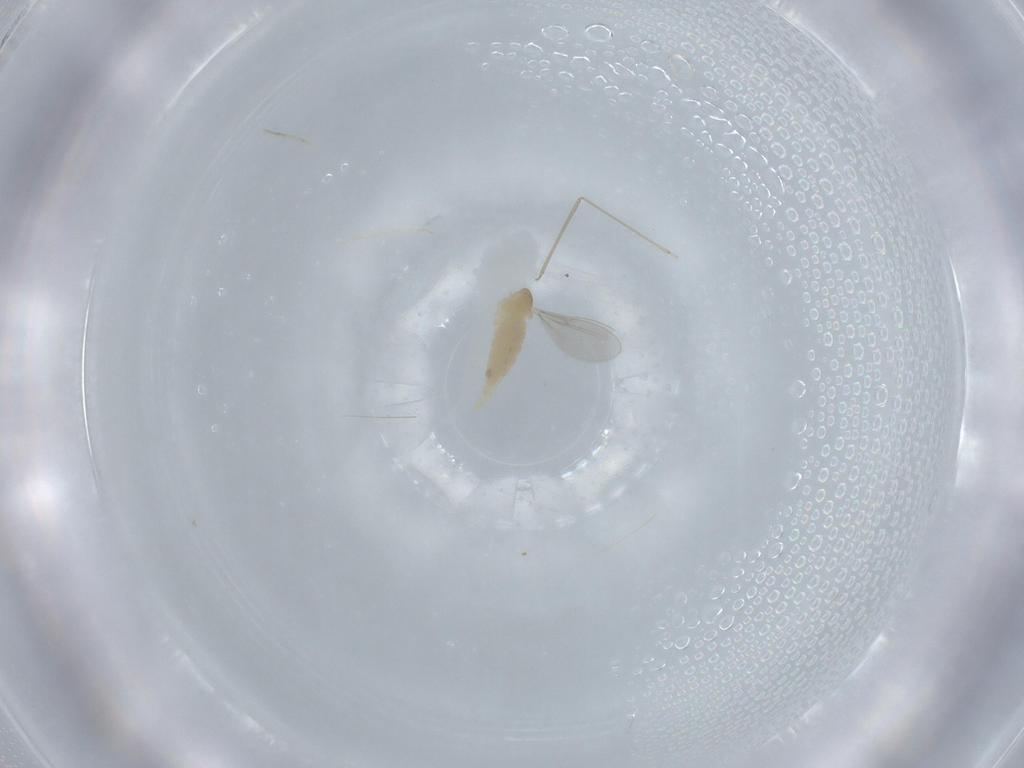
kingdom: Animalia
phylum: Arthropoda
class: Insecta
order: Diptera
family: Cecidomyiidae
